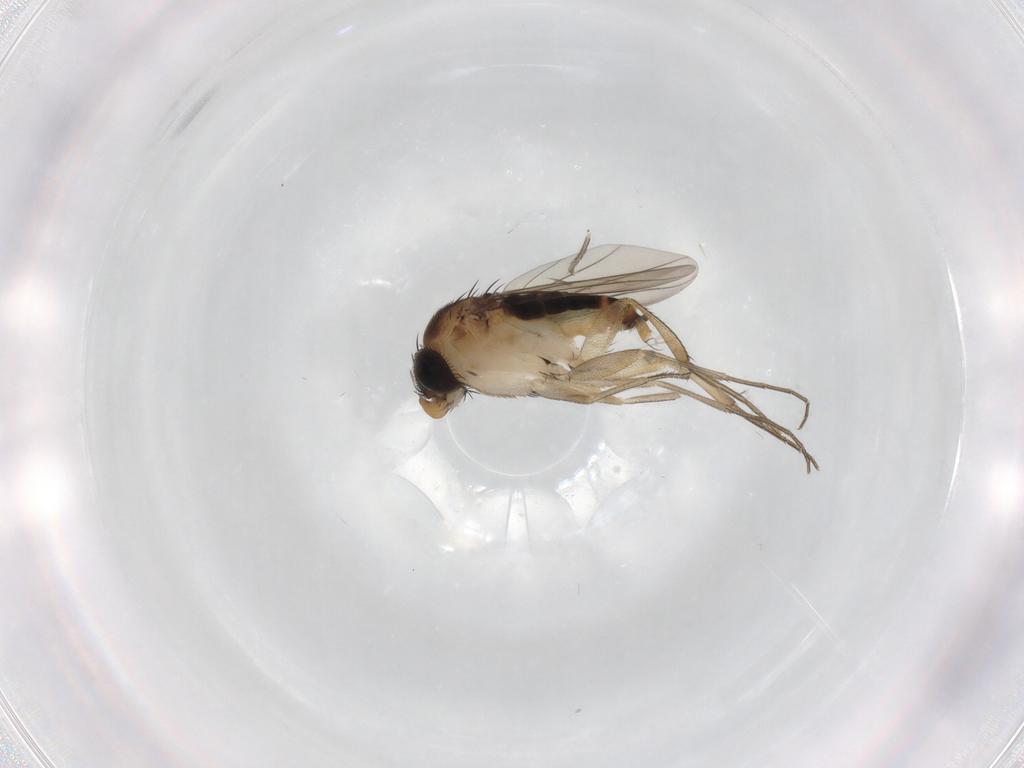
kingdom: Animalia
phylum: Arthropoda
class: Insecta
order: Diptera
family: Phoridae
